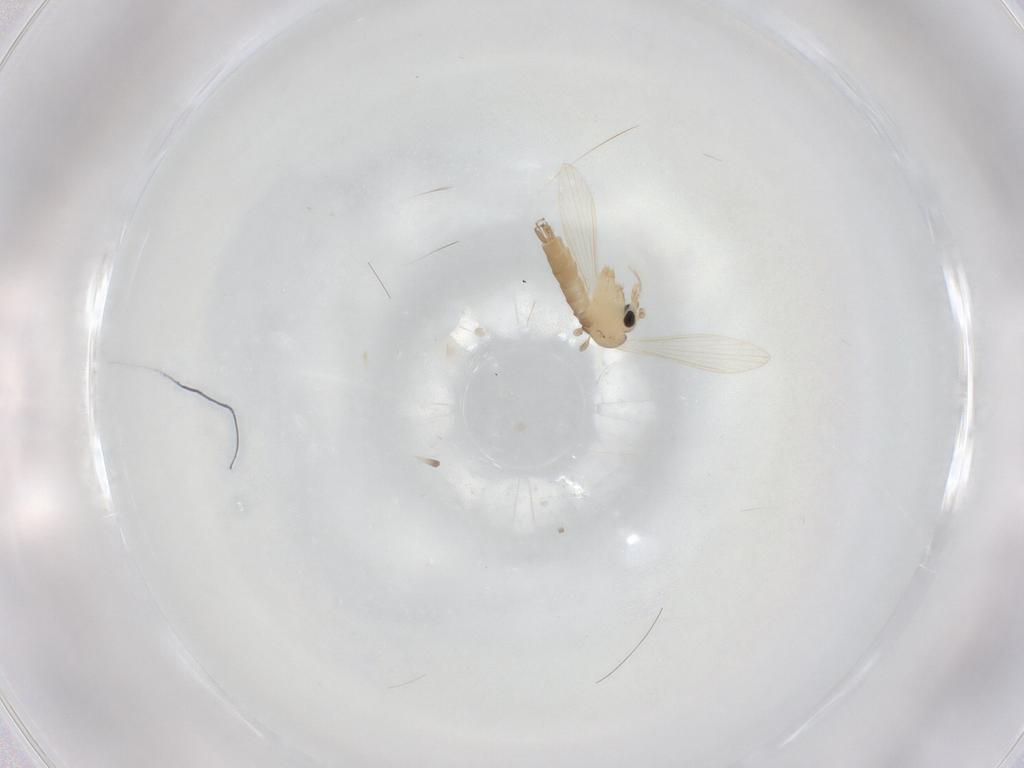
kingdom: Animalia
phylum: Arthropoda
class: Insecta
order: Diptera
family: Psychodidae
